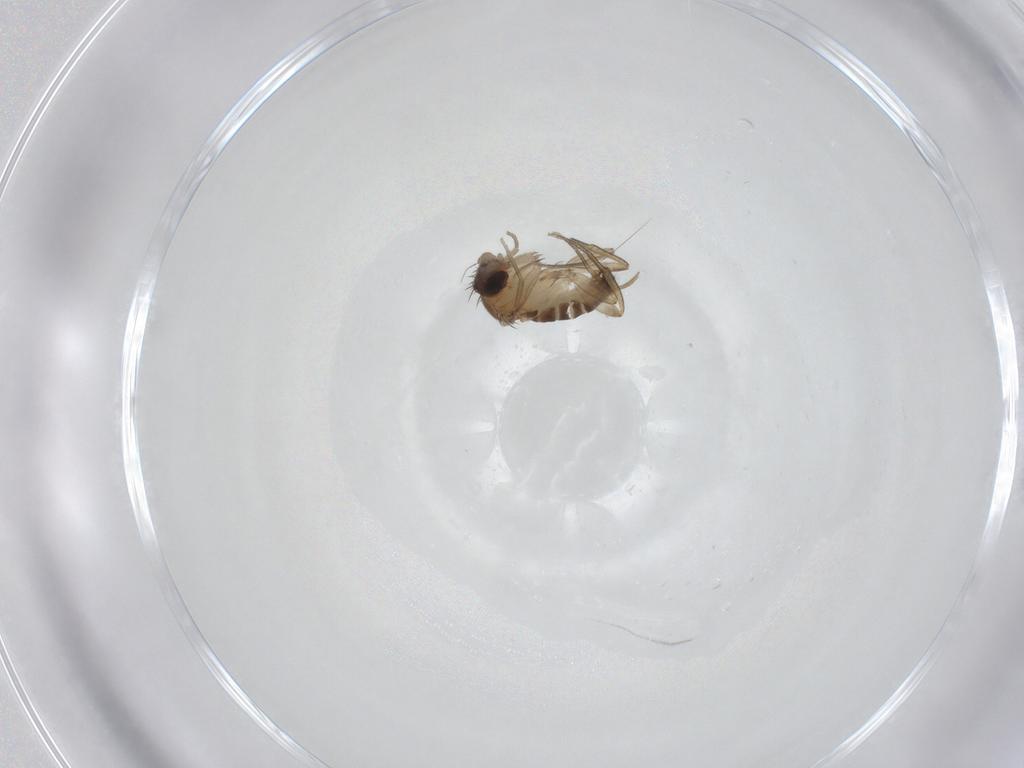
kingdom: Animalia
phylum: Arthropoda
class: Insecta
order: Diptera
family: Phoridae
